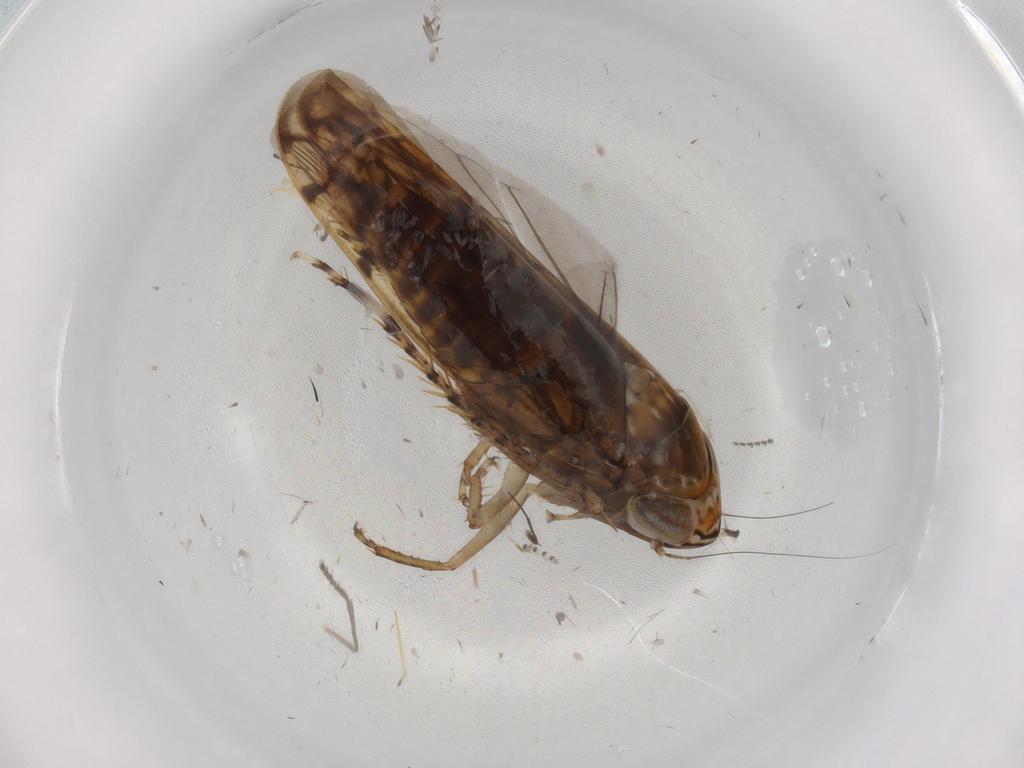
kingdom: Animalia
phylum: Arthropoda
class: Insecta
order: Hemiptera
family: Cicadellidae
